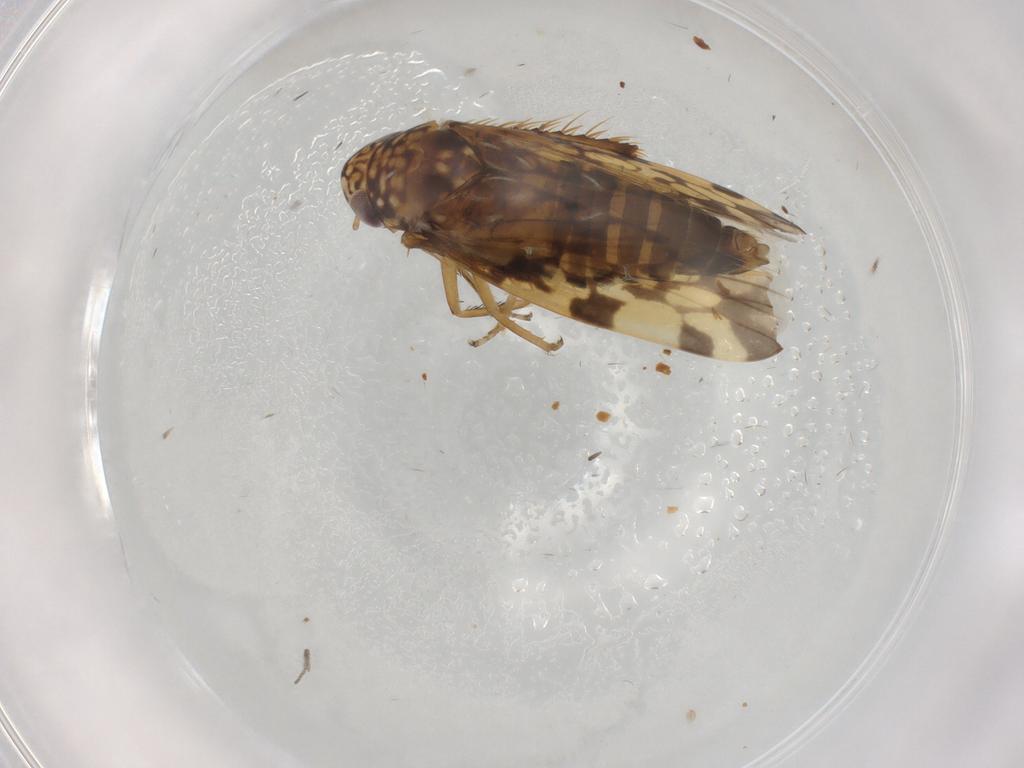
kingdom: Animalia
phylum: Arthropoda
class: Insecta
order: Hemiptera
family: Cicadellidae
